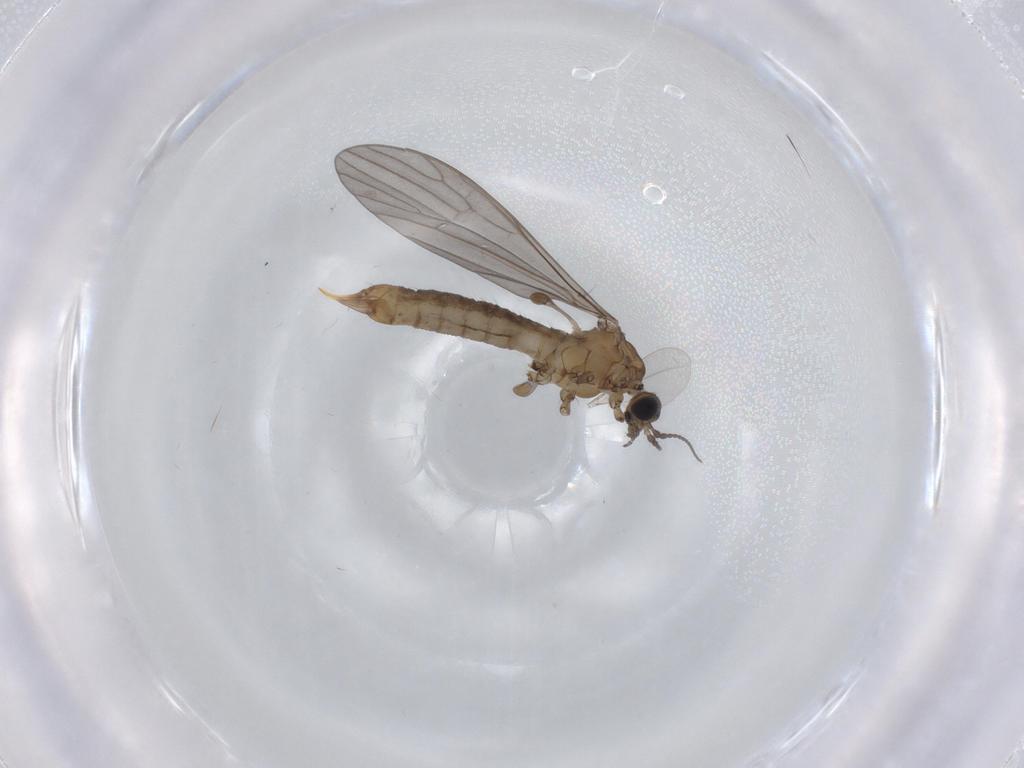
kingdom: Animalia
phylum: Arthropoda
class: Insecta
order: Diptera
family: Limoniidae
